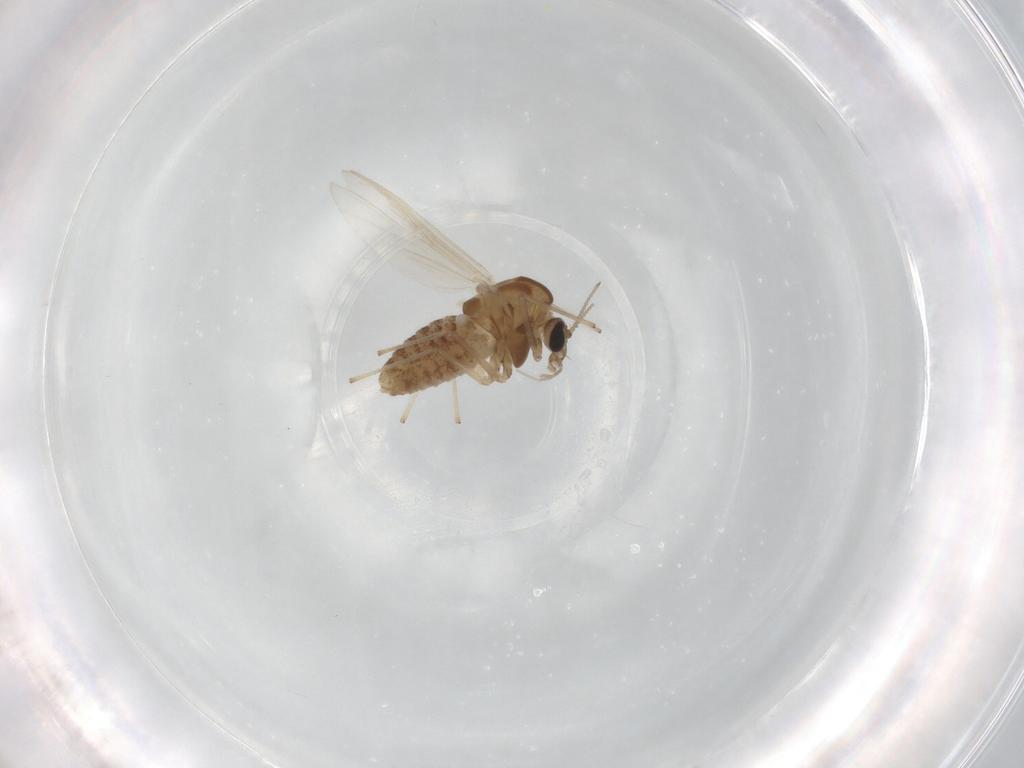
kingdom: Animalia
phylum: Arthropoda
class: Insecta
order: Diptera
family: Chironomidae
